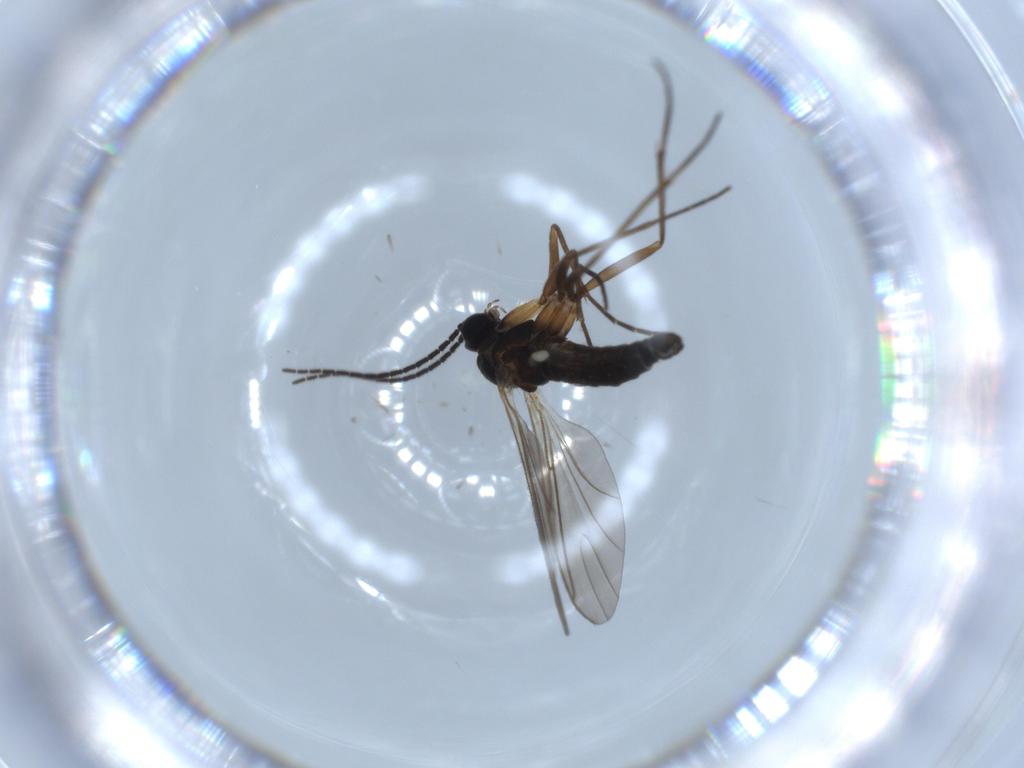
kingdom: Animalia
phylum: Arthropoda
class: Insecta
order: Diptera
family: Sciaridae
